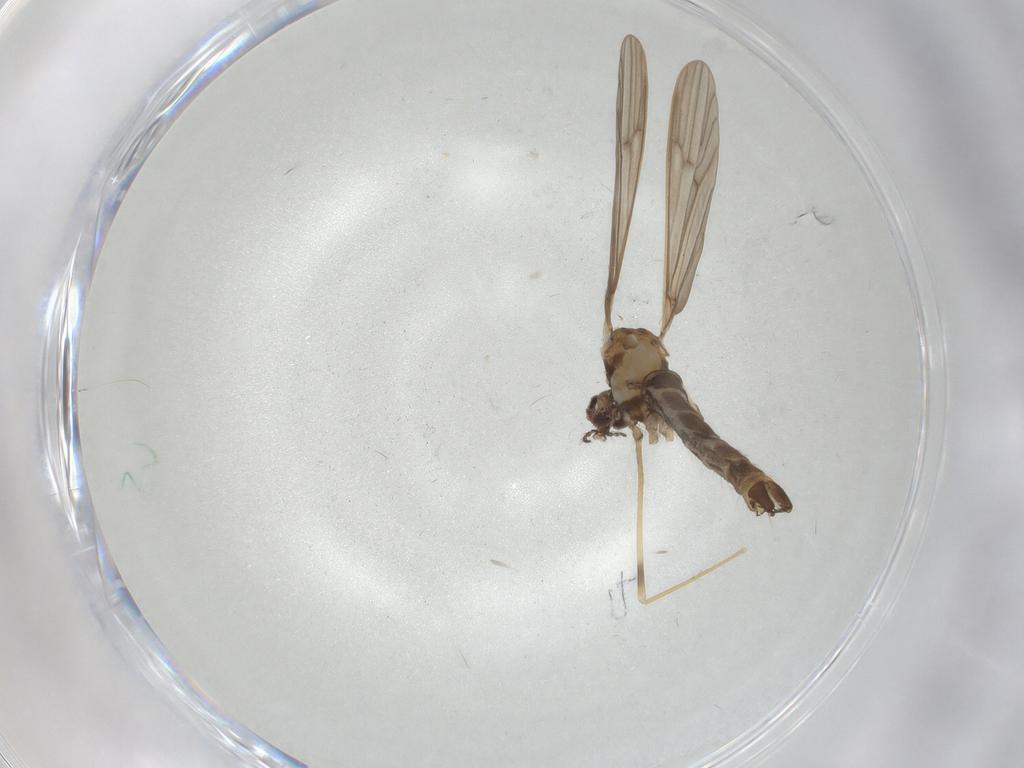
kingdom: Animalia
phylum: Arthropoda
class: Insecta
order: Diptera
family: Limoniidae
